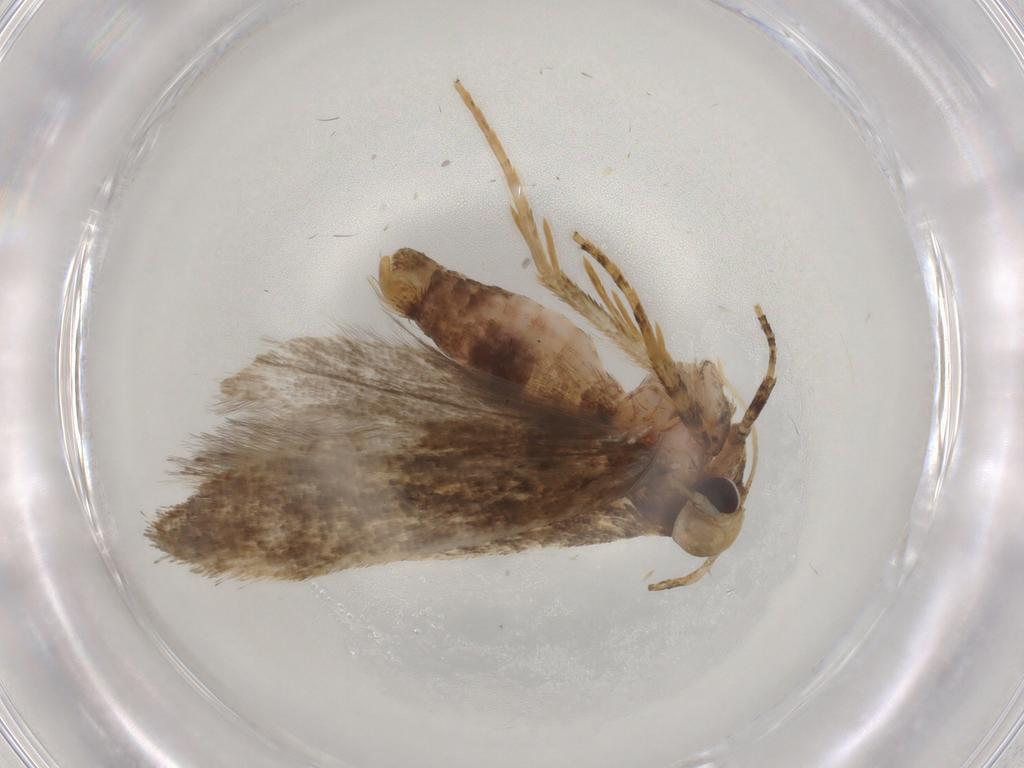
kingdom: Animalia
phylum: Arthropoda
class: Insecta
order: Lepidoptera
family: Gelechiidae
